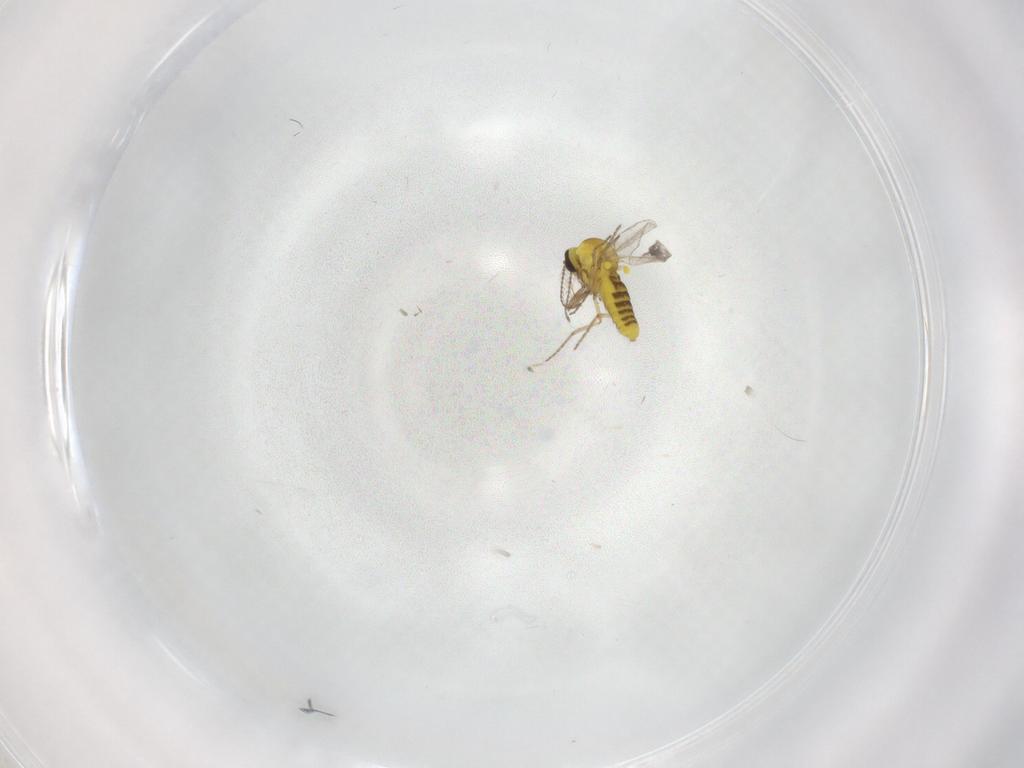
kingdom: Animalia
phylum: Arthropoda
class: Insecta
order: Diptera
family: Ceratopogonidae
